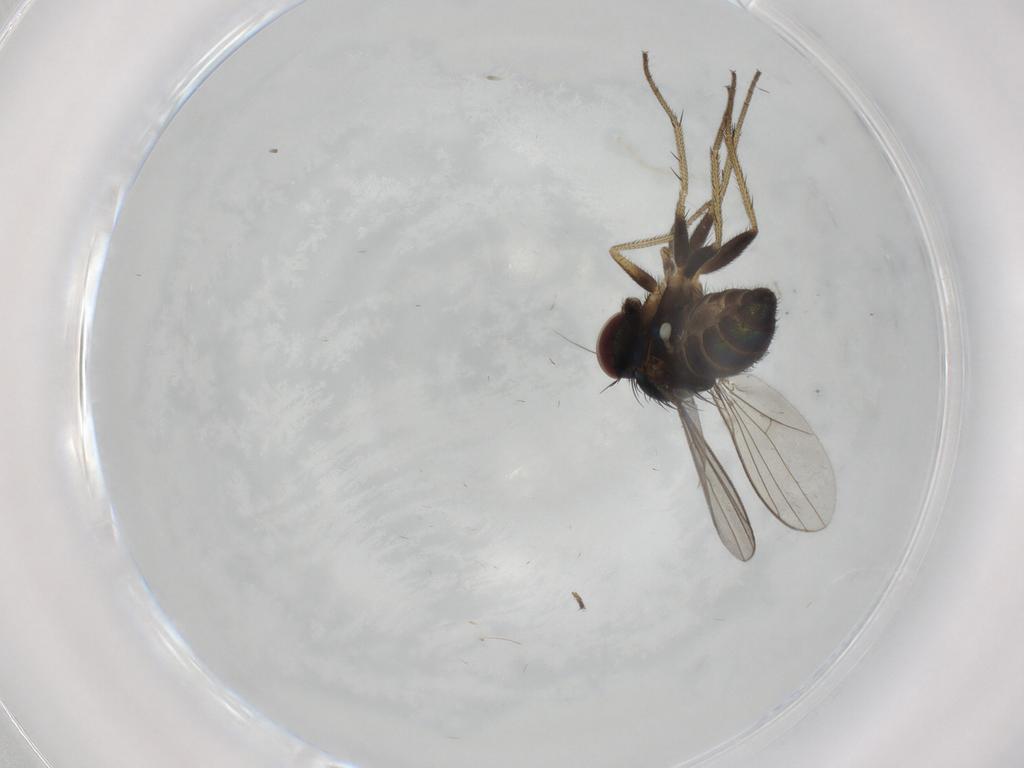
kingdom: Animalia
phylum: Arthropoda
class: Insecta
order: Diptera
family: Dolichopodidae
